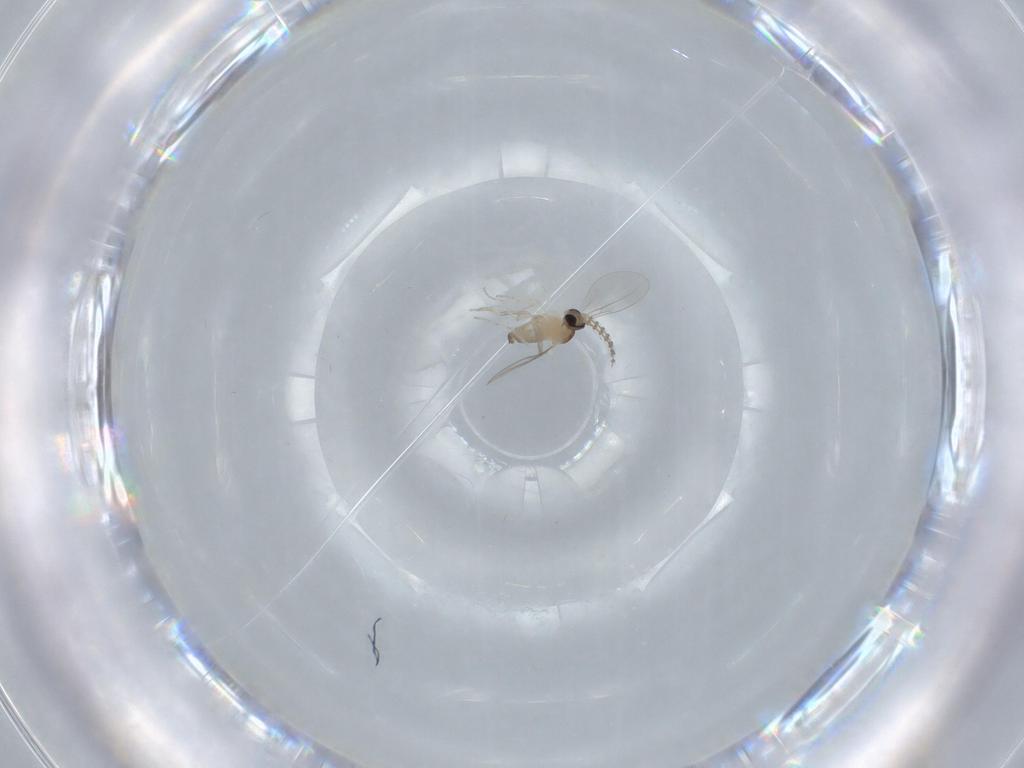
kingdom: Animalia
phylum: Arthropoda
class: Insecta
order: Diptera
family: Cecidomyiidae
